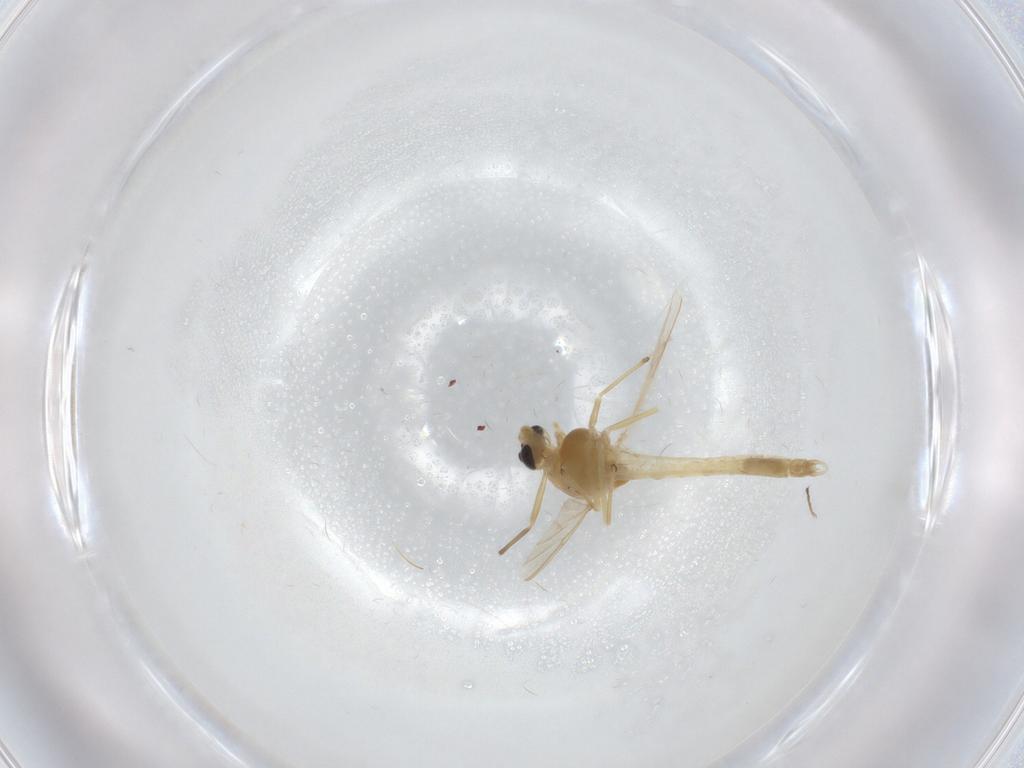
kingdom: Animalia
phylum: Arthropoda
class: Insecta
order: Diptera
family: Chironomidae
